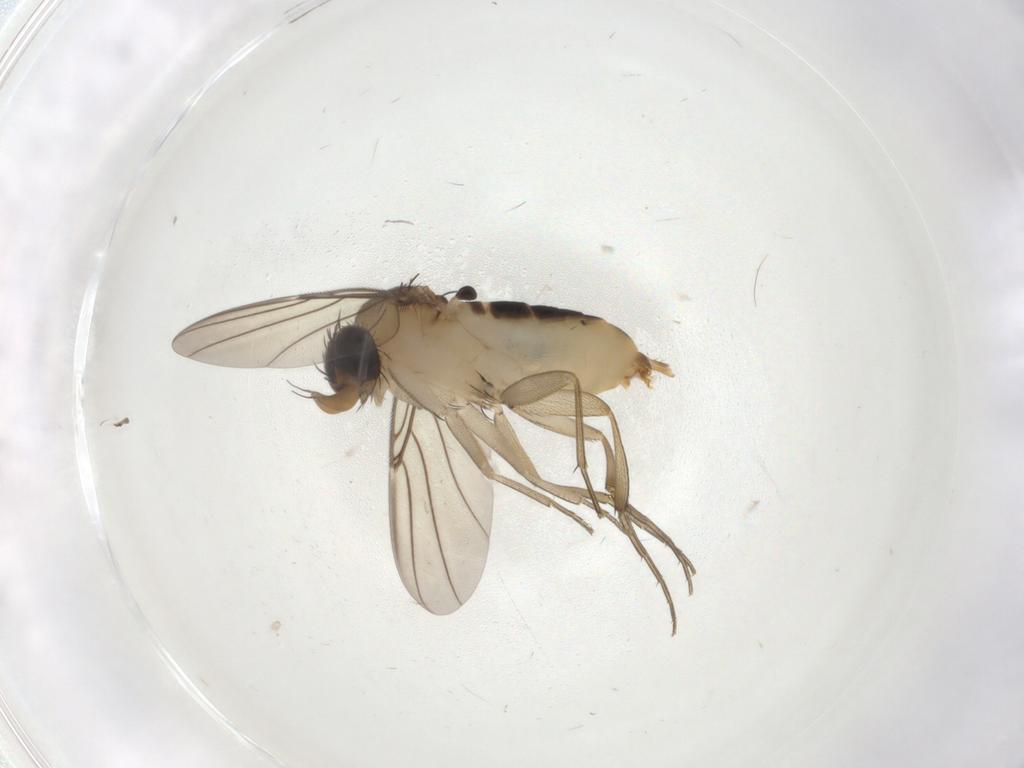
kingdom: Animalia
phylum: Arthropoda
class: Insecta
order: Diptera
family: Phoridae
